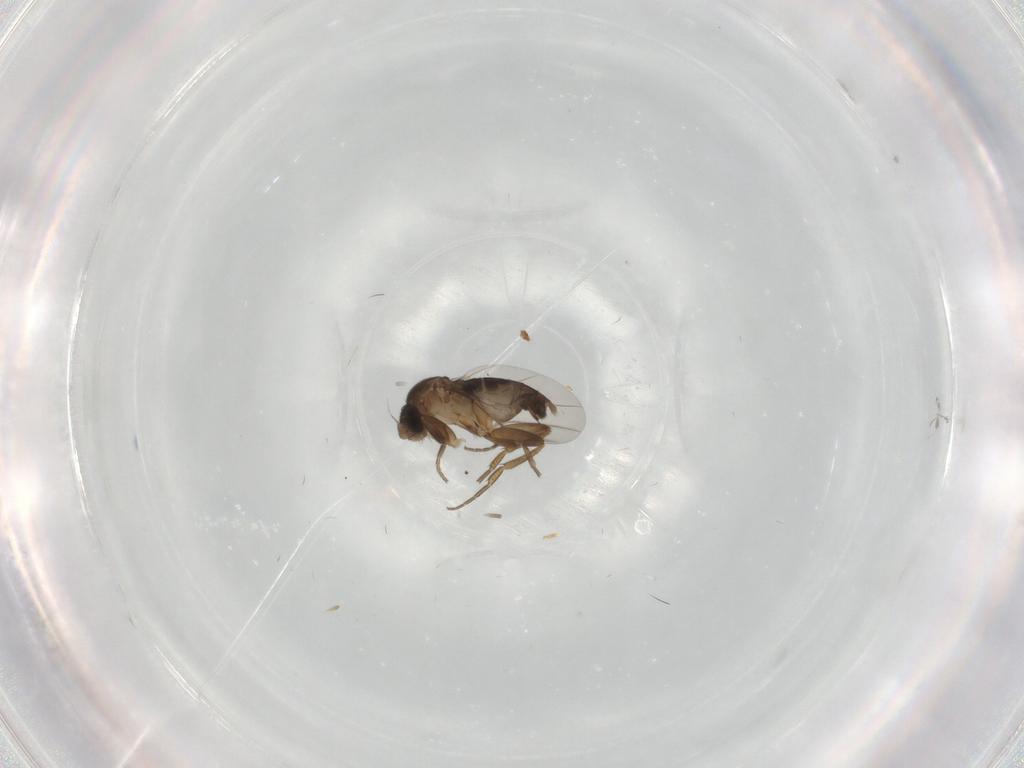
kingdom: Animalia
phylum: Arthropoda
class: Insecta
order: Diptera
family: Phoridae
